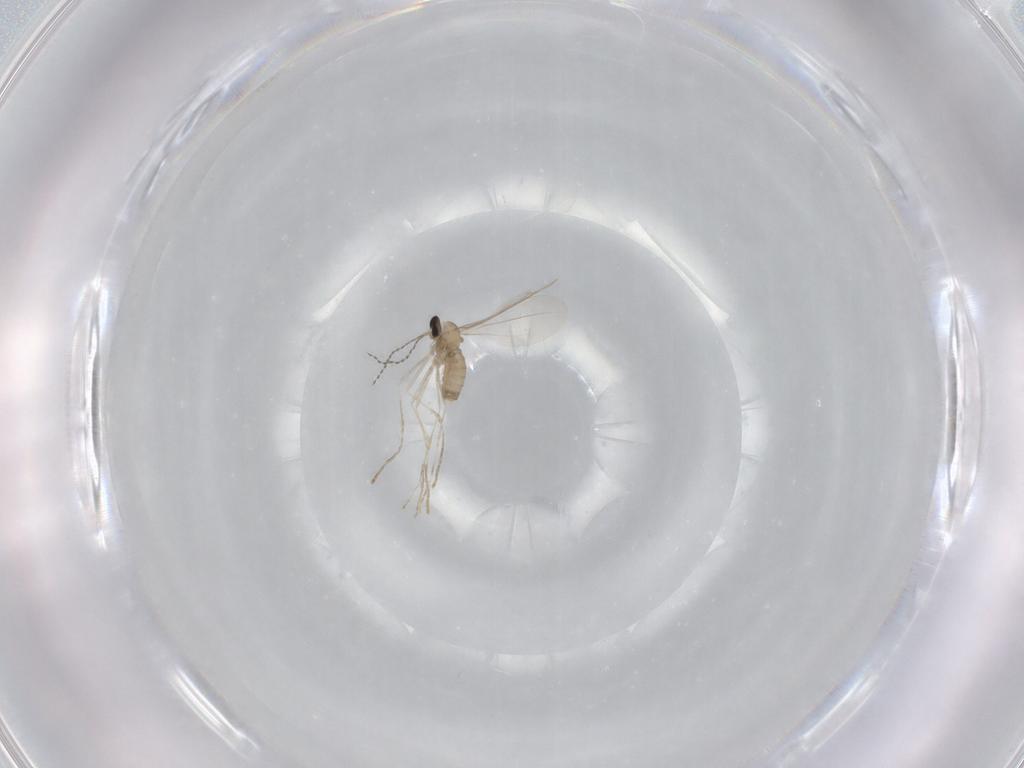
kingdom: Animalia
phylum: Arthropoda
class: Insecta
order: Diptera
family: Cecidomyiidae
